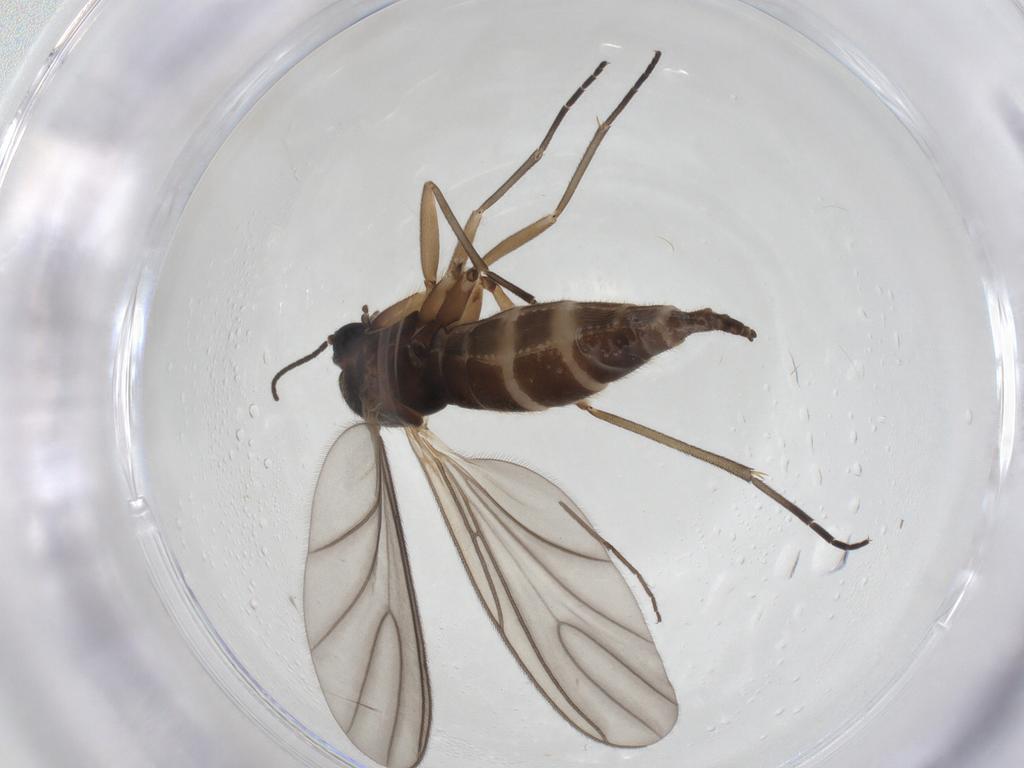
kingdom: Animalia
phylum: Arthropoda
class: Insecta
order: Diptera
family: Sciaridae
